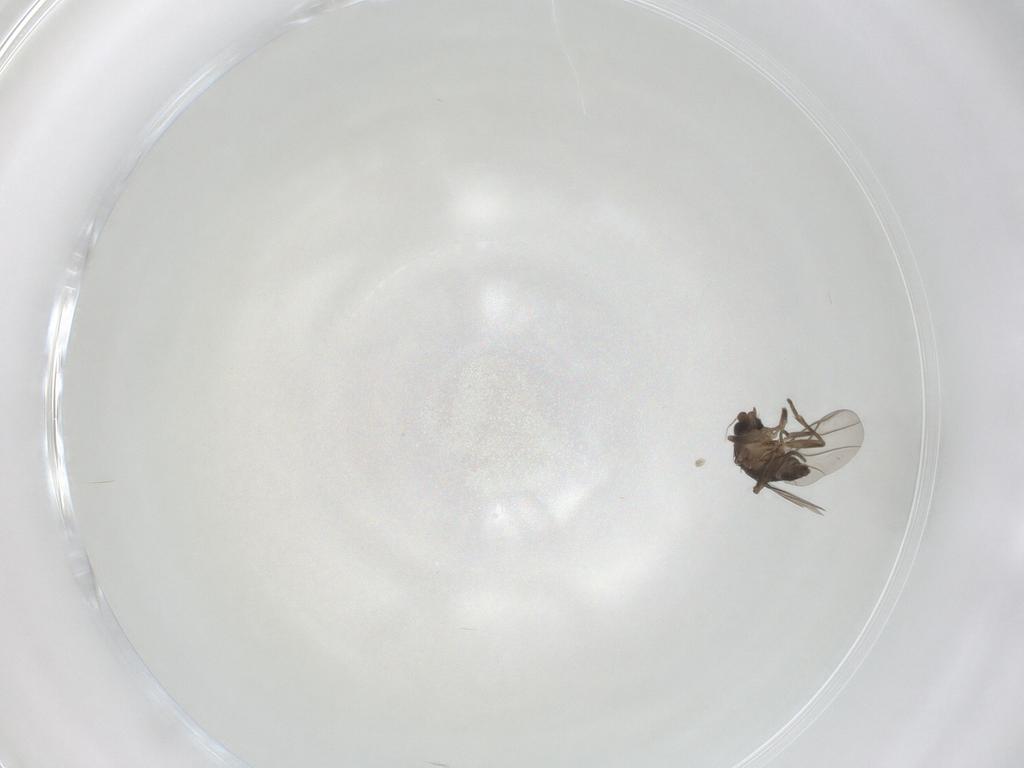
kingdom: Animalia
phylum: Arthropoda
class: Insecta
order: Diptera
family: Phoridae
